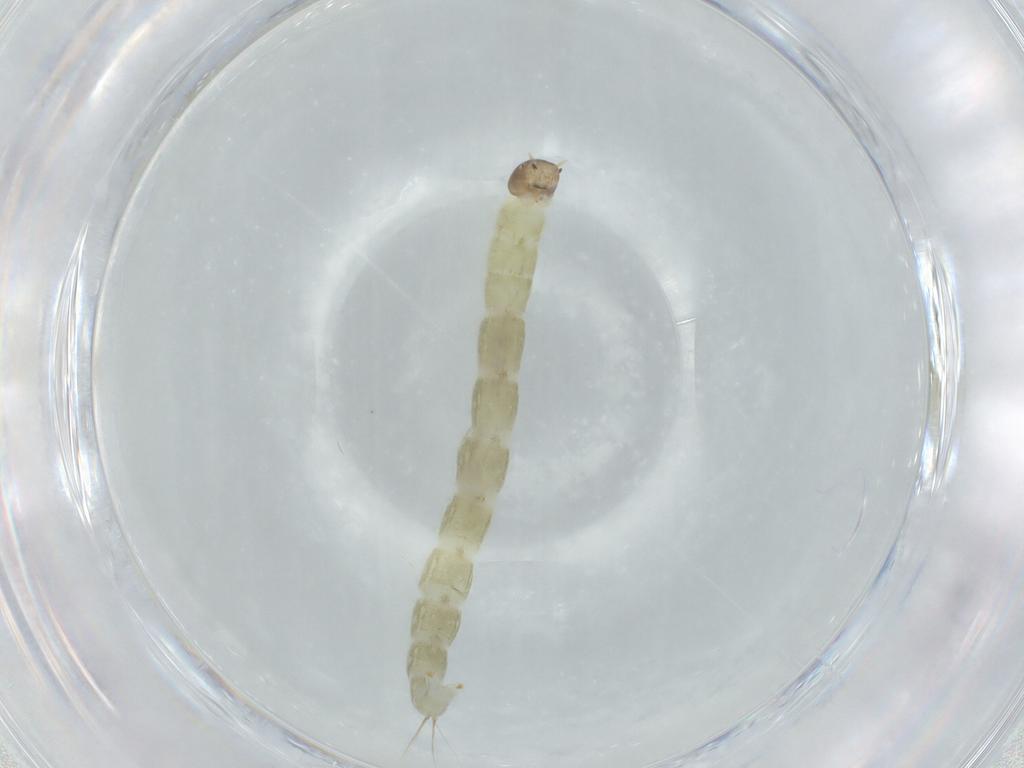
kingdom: Animalia
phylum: Arthropoda
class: Insecta
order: Diptera
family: Chironomidae
